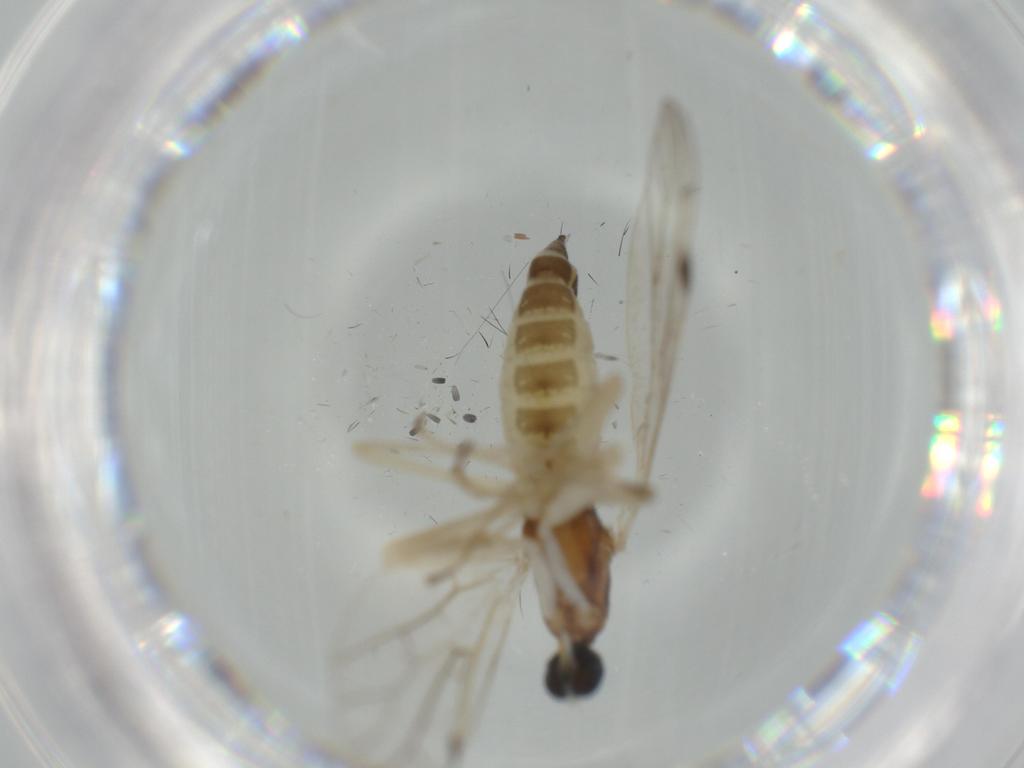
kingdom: Animalia
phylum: Arthropoda
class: Insecta
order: Diptera
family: Empididae
